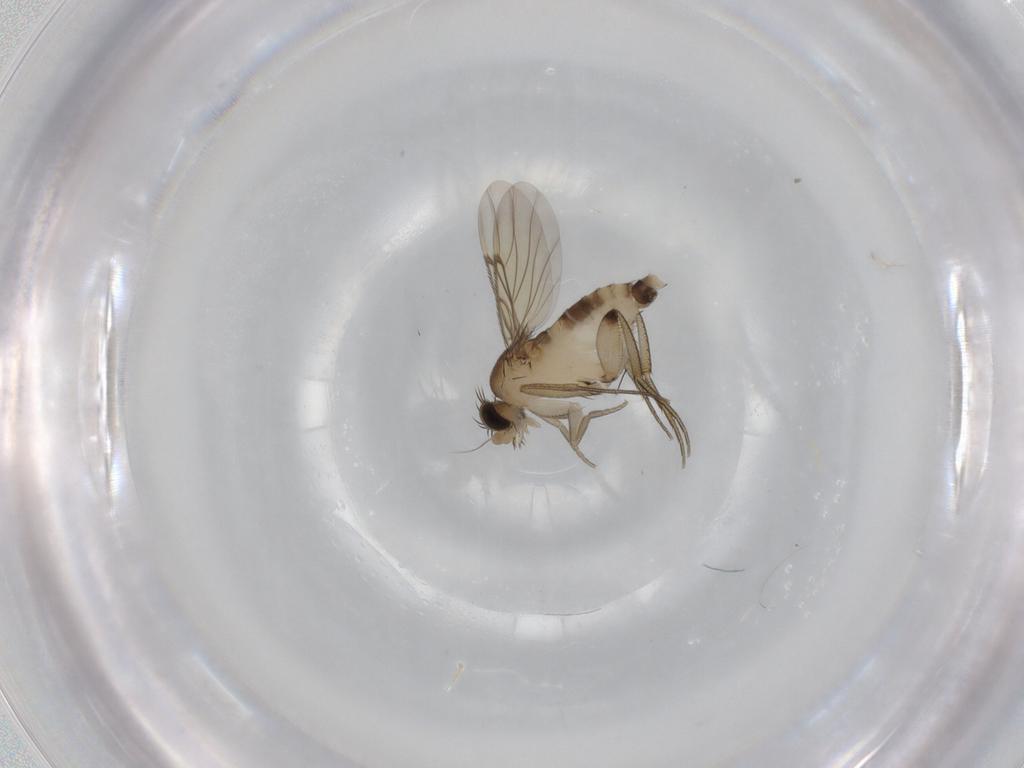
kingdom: Animalia
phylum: Arthropoda
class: Insecta
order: Diptera
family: Phoridae
